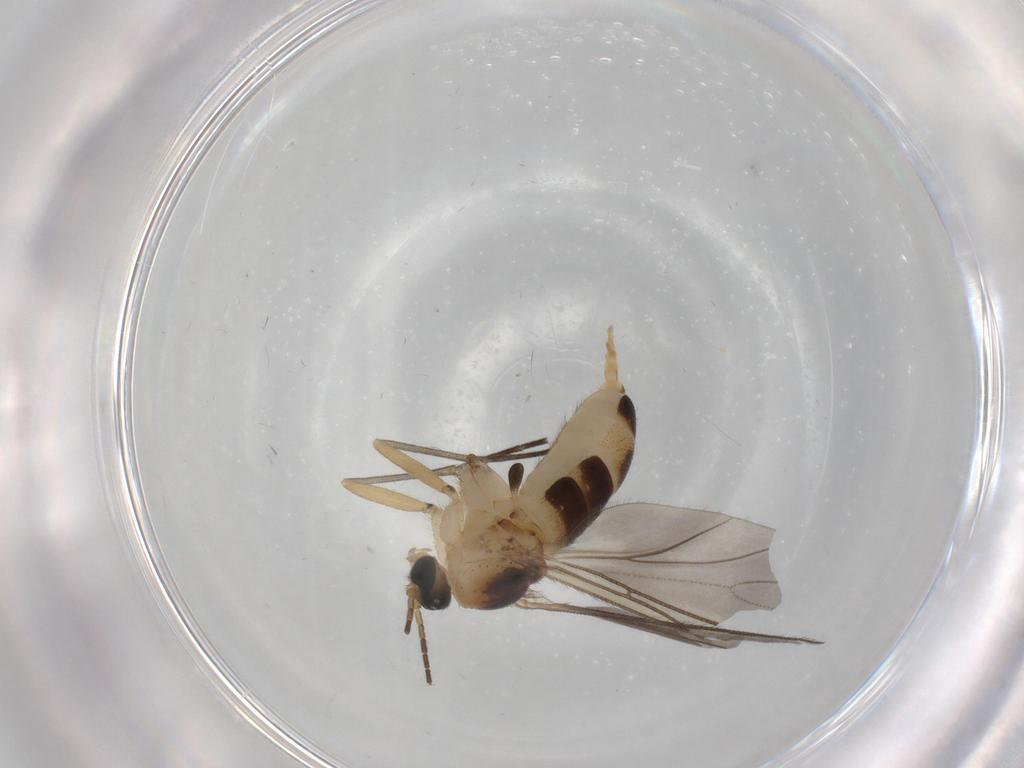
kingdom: Animalia
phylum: Arthropoda
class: Insecta
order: Diptera
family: Sciaridae
